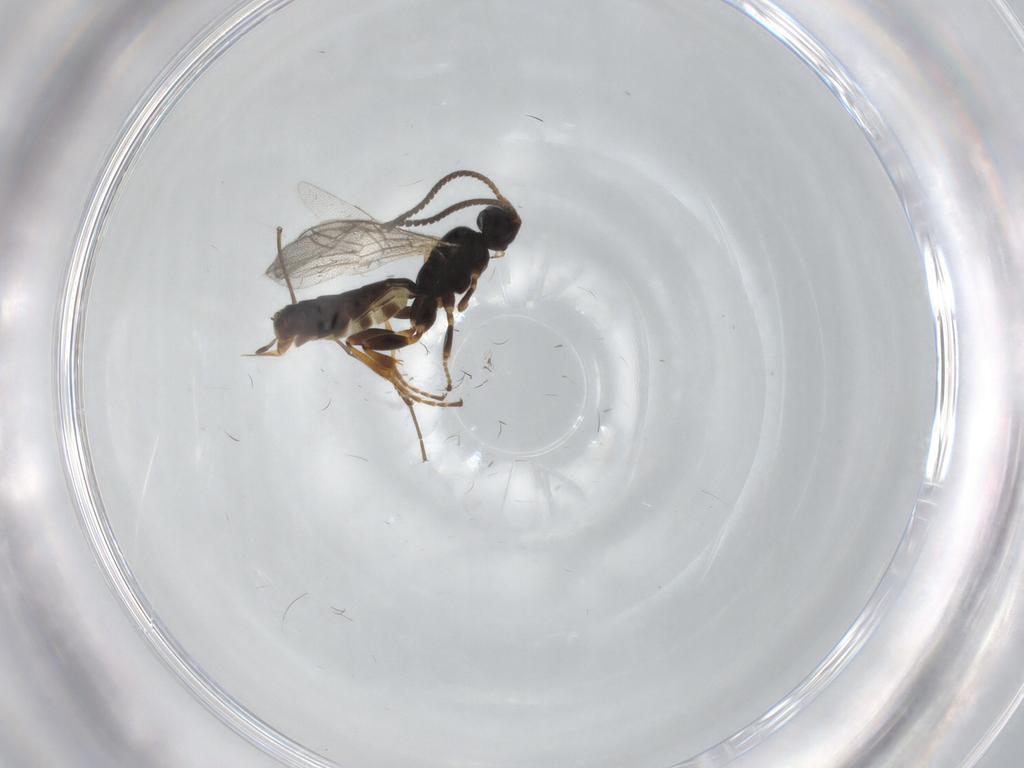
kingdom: Animalia
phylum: Arthropoda
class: Insecta
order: Hymenoptera
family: Ichneumonidae
